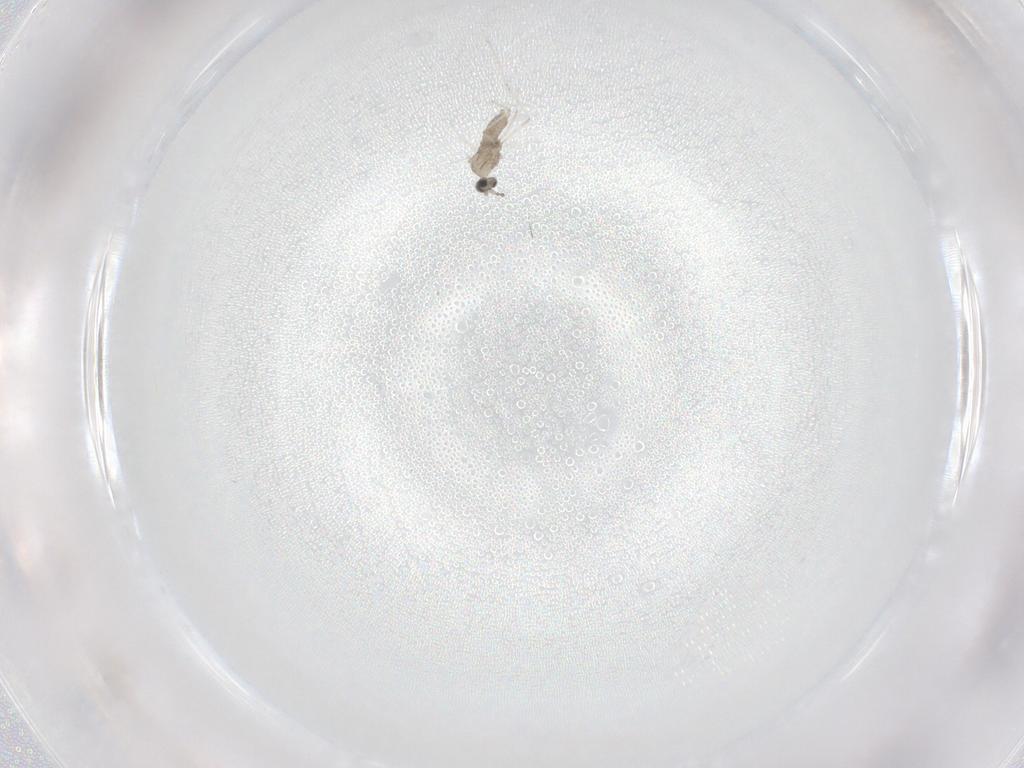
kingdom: Animalia
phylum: Arthropoda
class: Insecta
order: Diptera
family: Cecidomyiidae
